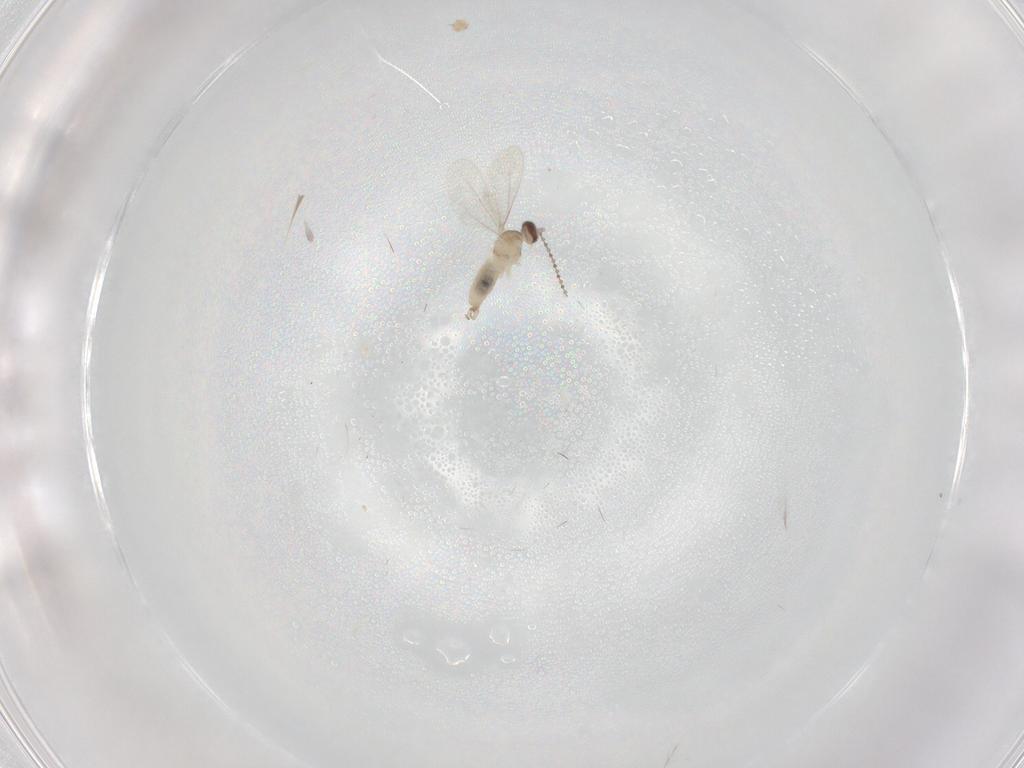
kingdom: Animalia
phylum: Arthropoda
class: Insecta
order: Diptera
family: Cecidomyiidae
